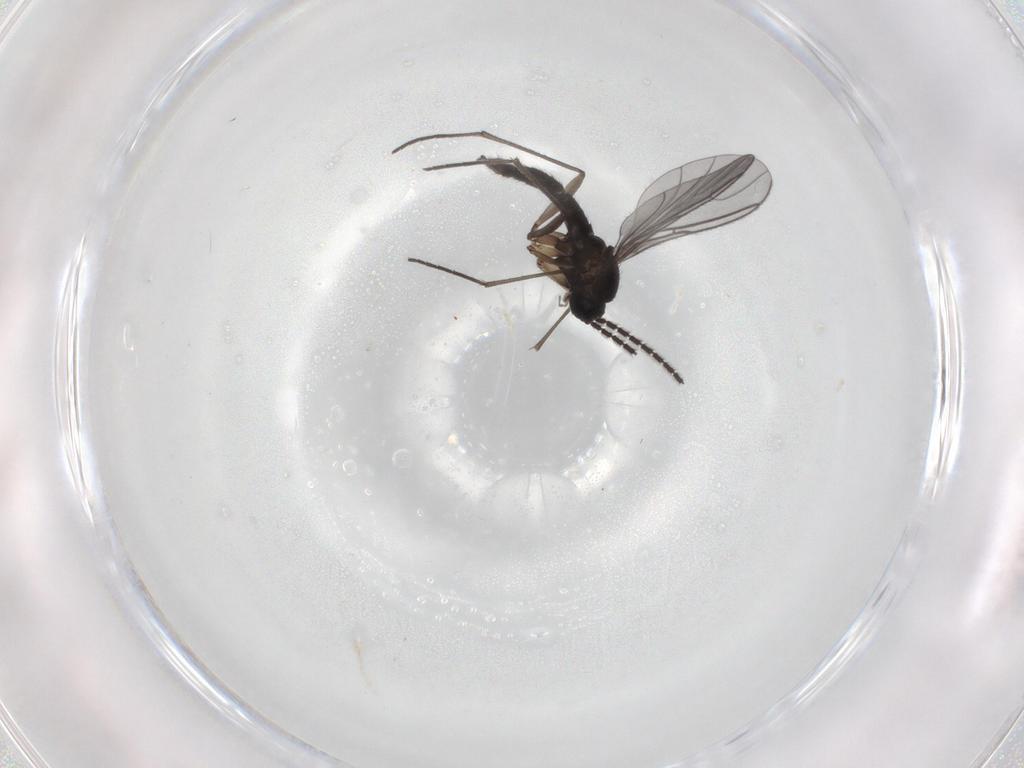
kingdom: Animalia
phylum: Arthropoda
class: Insecta
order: Diptera
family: Sciaridae
